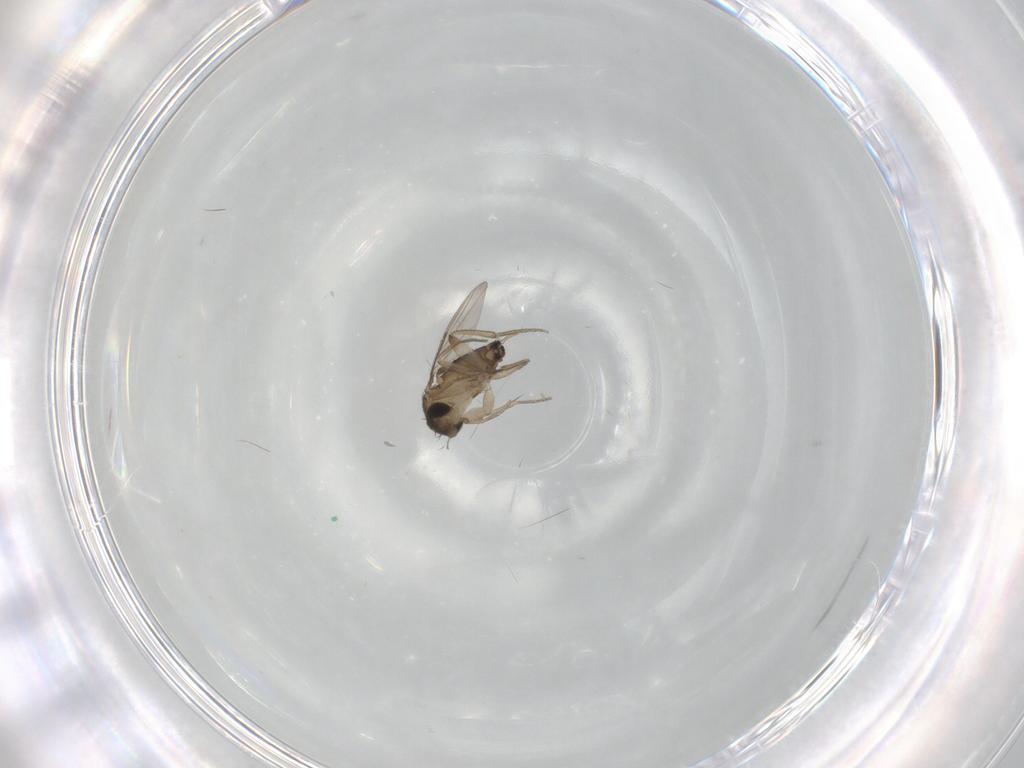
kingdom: Animalia
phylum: Arthropoda
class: Insecta
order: Diptera
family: Phoridae
